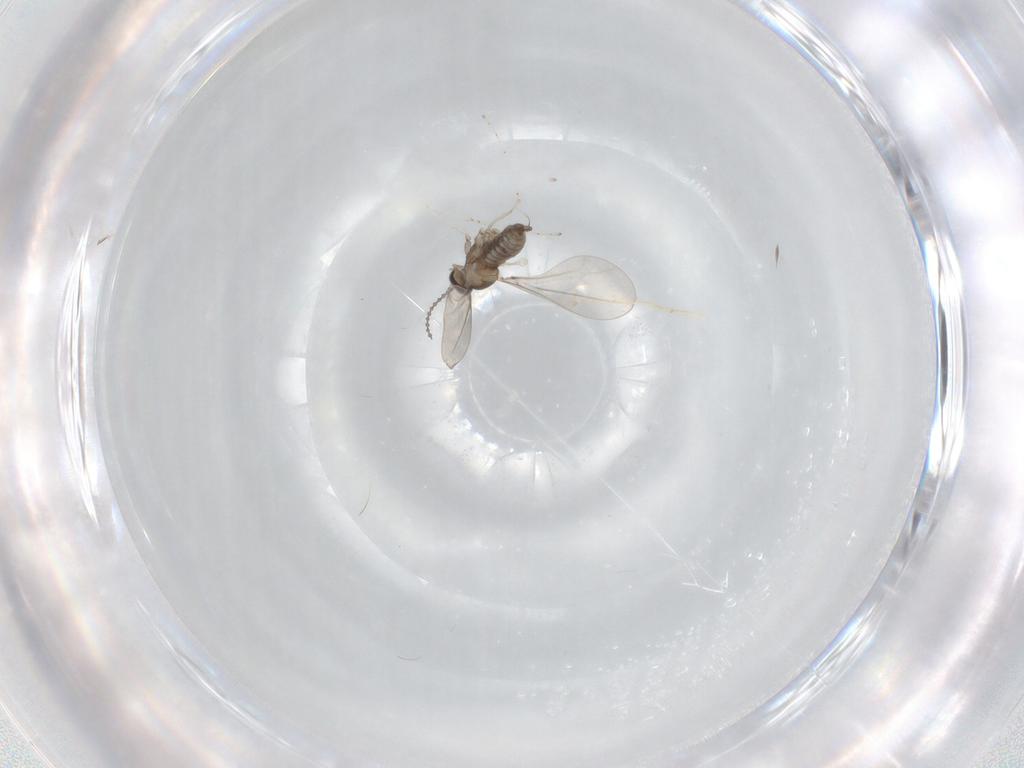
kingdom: Animalia
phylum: Arthropoda
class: Insecta
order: Diptera
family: Cecidomyiidae
